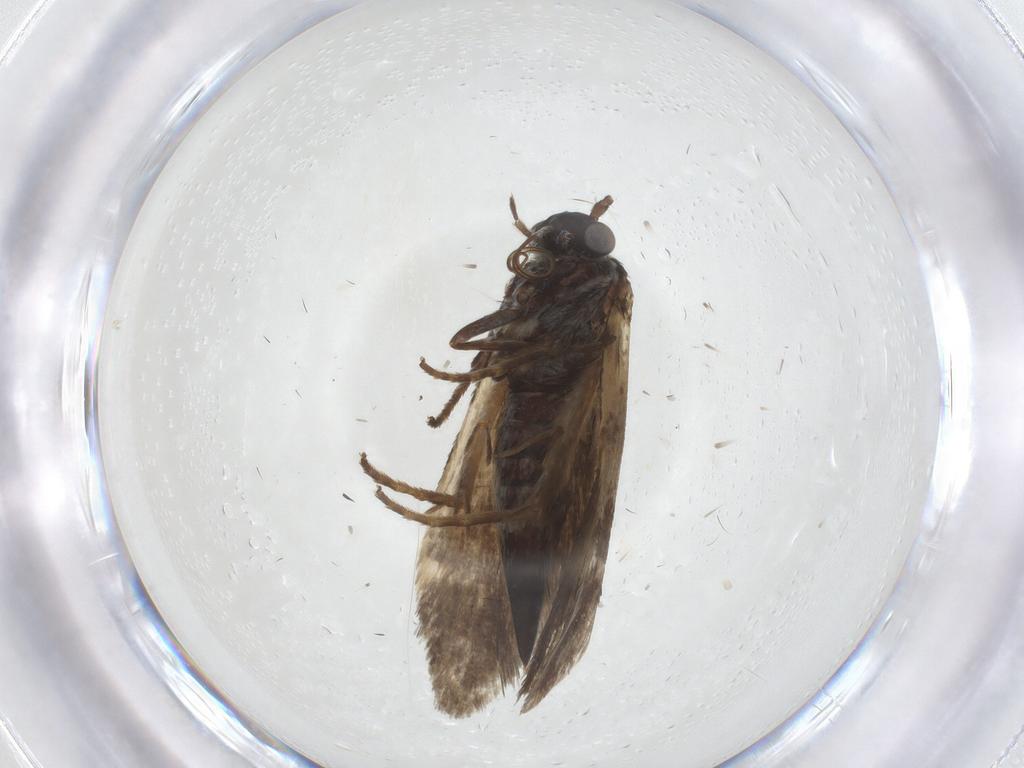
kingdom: Animalia
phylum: Arthropoda
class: Insecta
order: Lepidoptera
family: Adelidae
